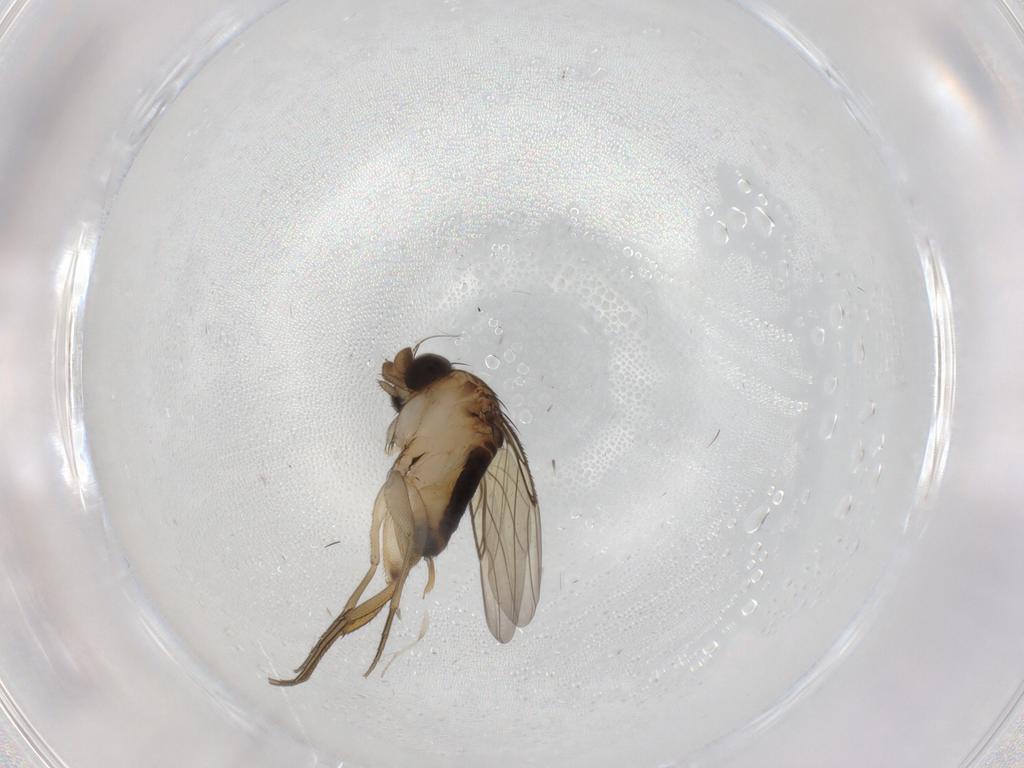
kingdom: Animalia
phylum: Arthropoda
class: Insecta
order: Diptera
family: Phoridae
